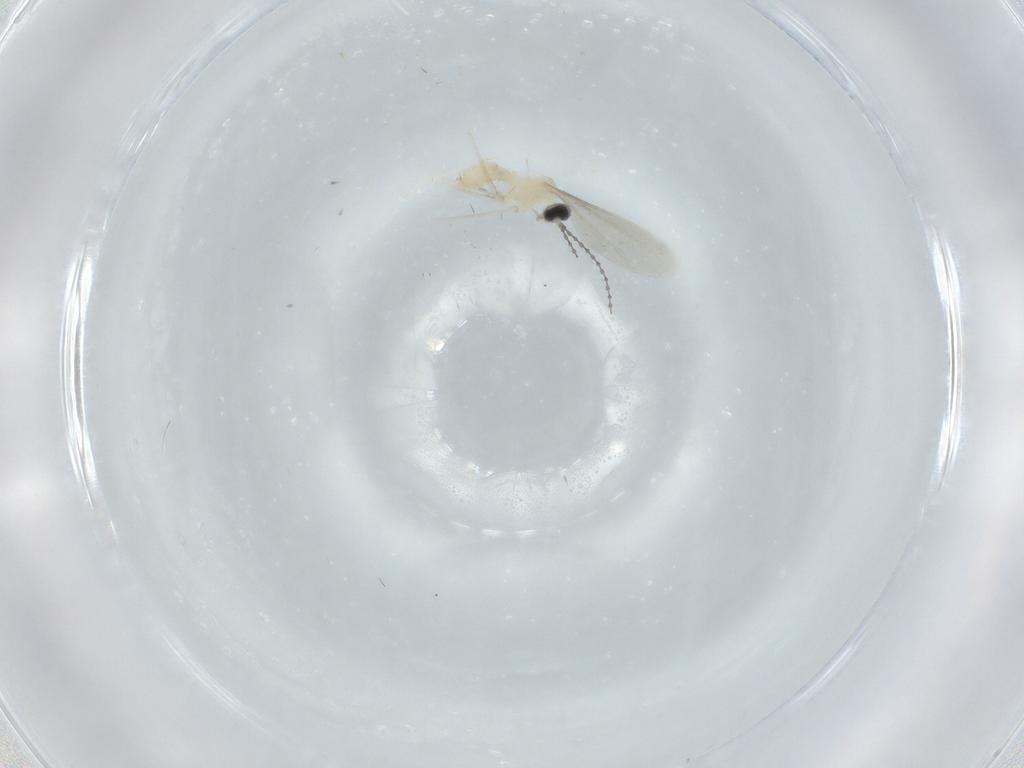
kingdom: Animalia
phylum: Arthropoda
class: Insecta
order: Diptera
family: Cecidomyiidae
